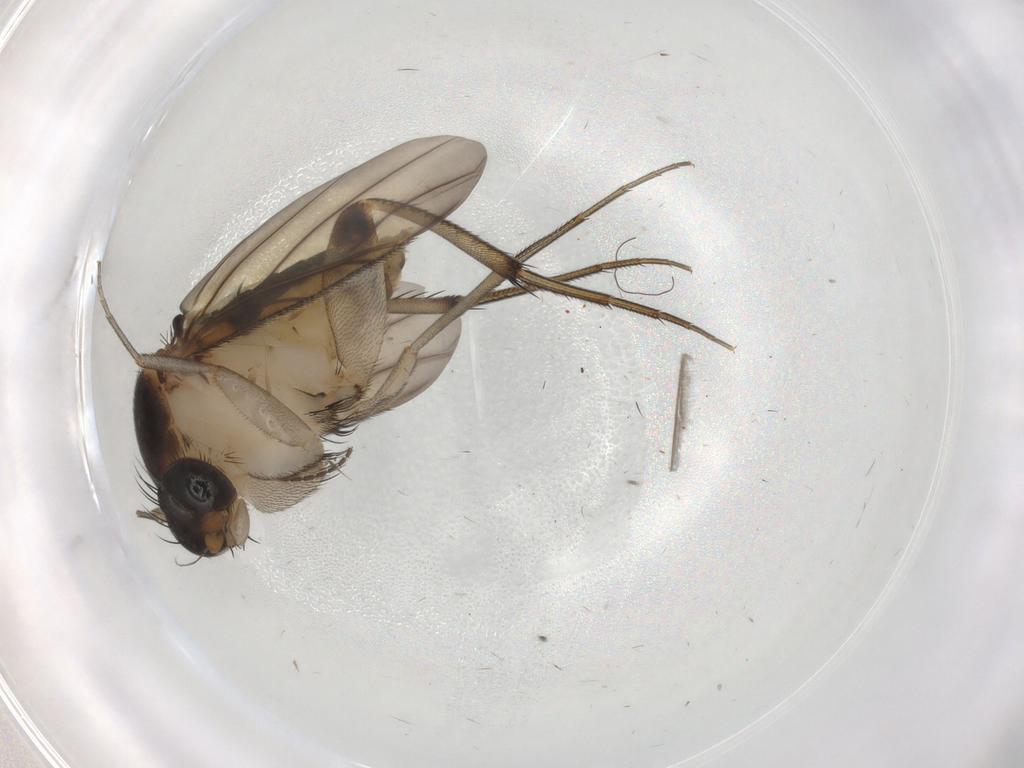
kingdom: Animalia
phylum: Arthropoda
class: Insecta
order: Diptera
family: Phoridae
